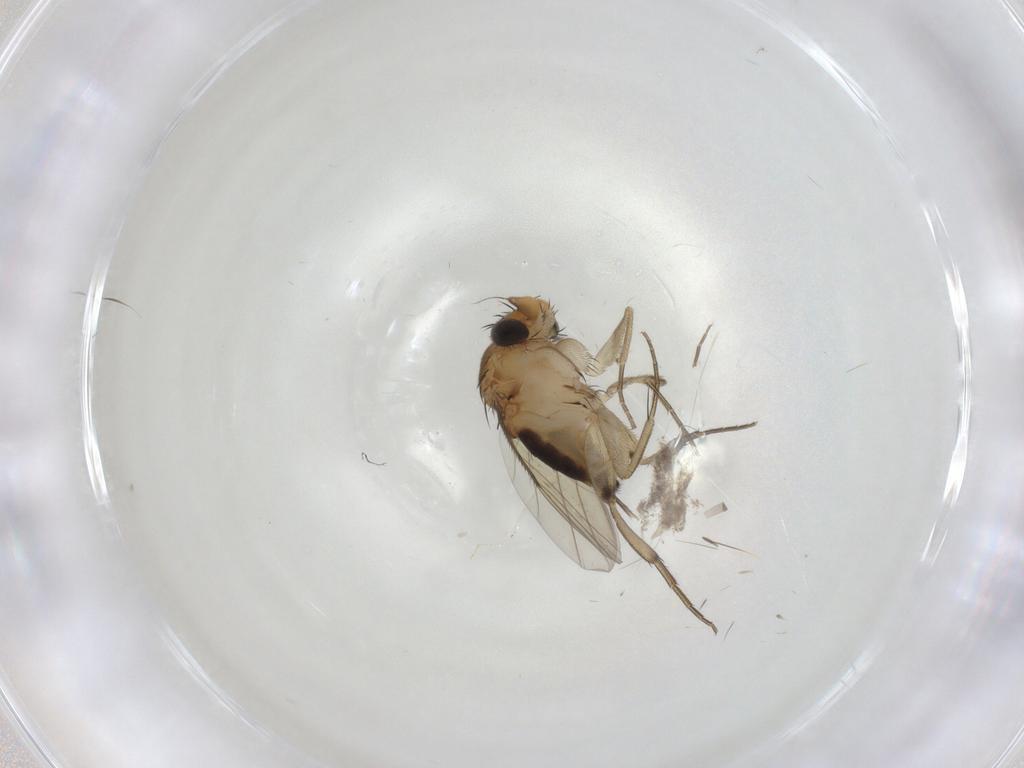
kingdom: Animalia
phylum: Arthropoda
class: Insecta
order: Diptera
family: Cecidomyiidae
